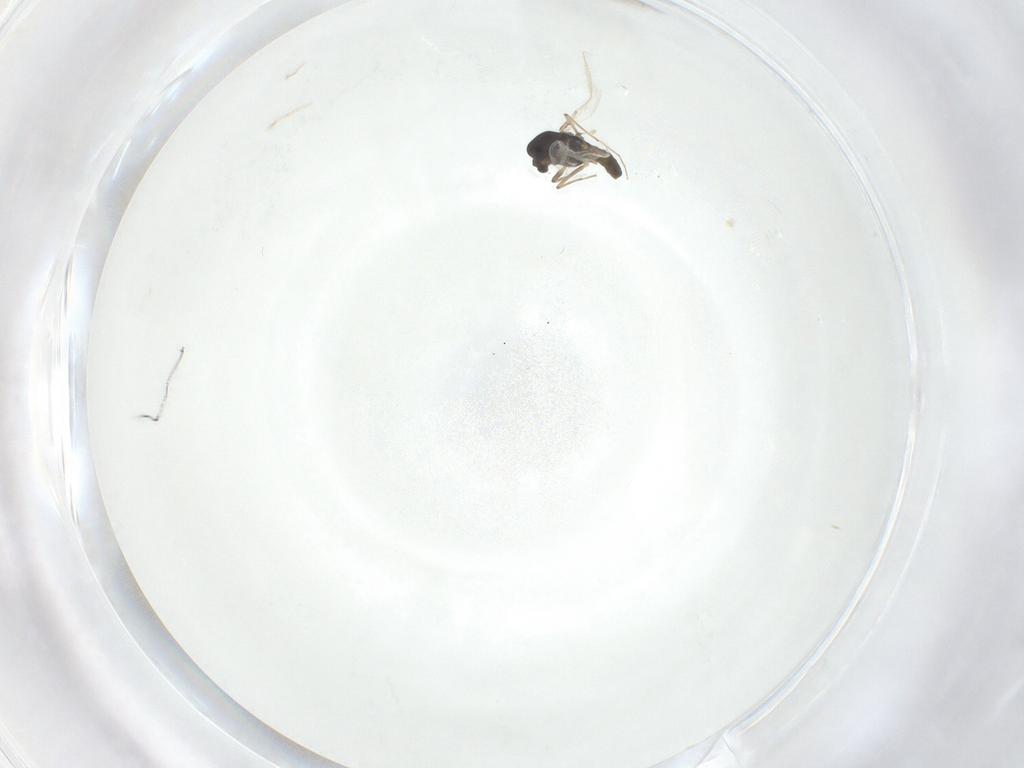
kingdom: Animalia
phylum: Arthropoda
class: Insecta
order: Diptera
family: Chironomidae
